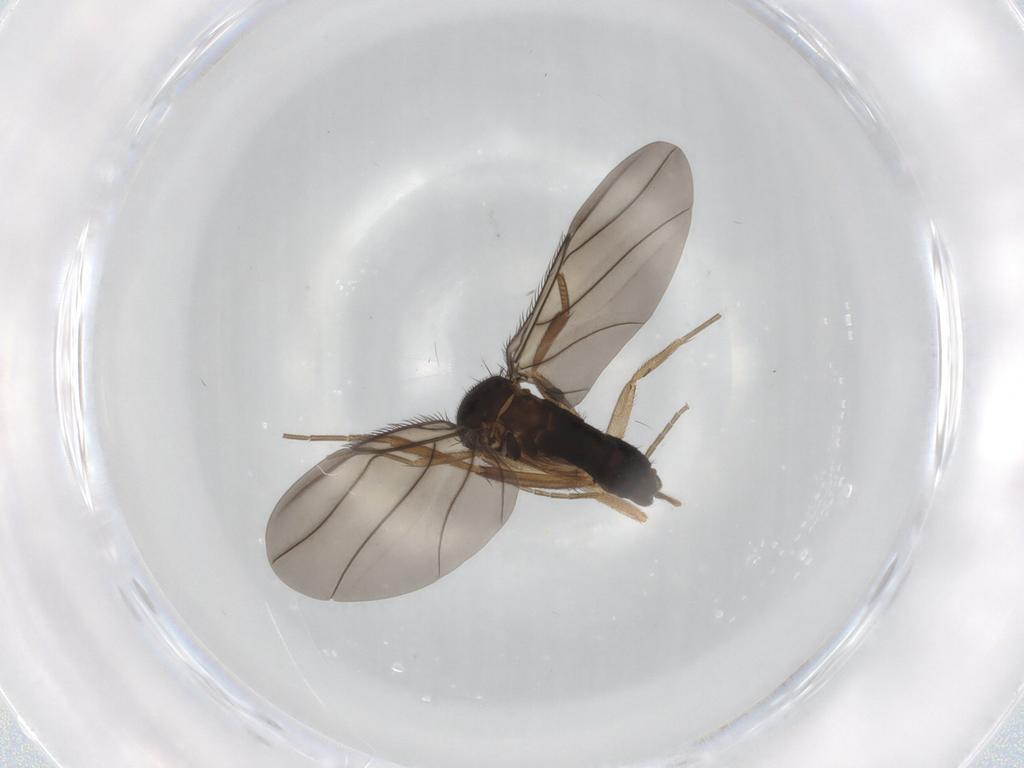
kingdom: Animalia
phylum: Arthropoda
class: Insecta
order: Diptera
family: Phoridae
